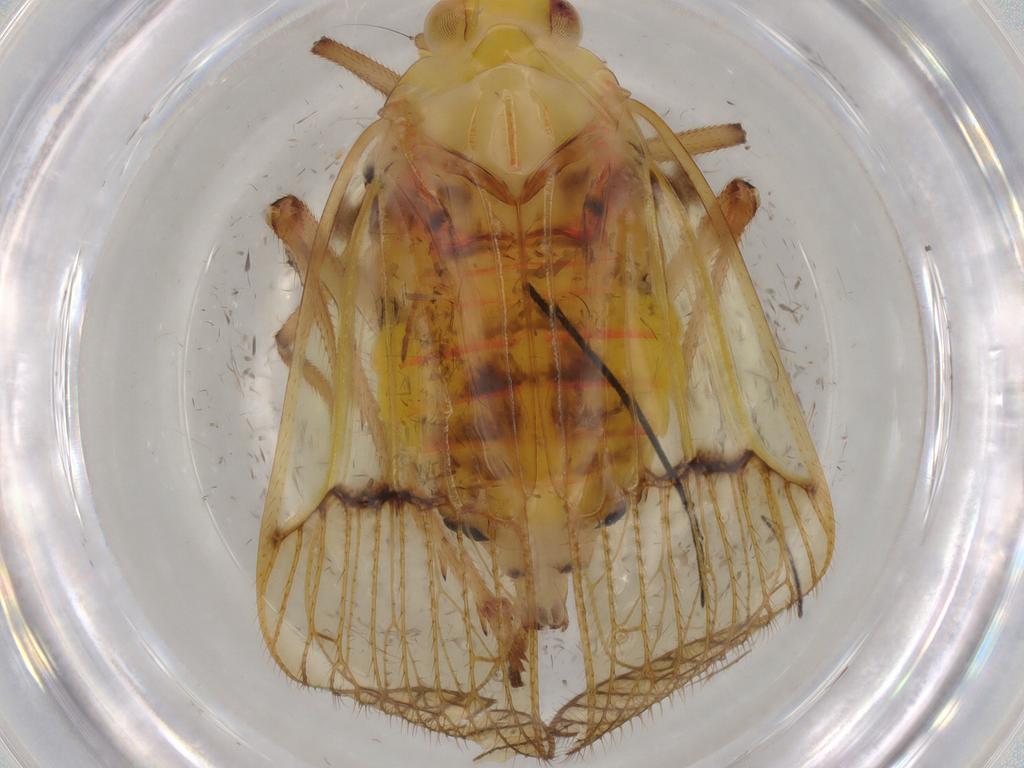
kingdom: Animalia
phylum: Arthropoda
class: Insecta
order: Hemiptera
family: Tropiduchidae
